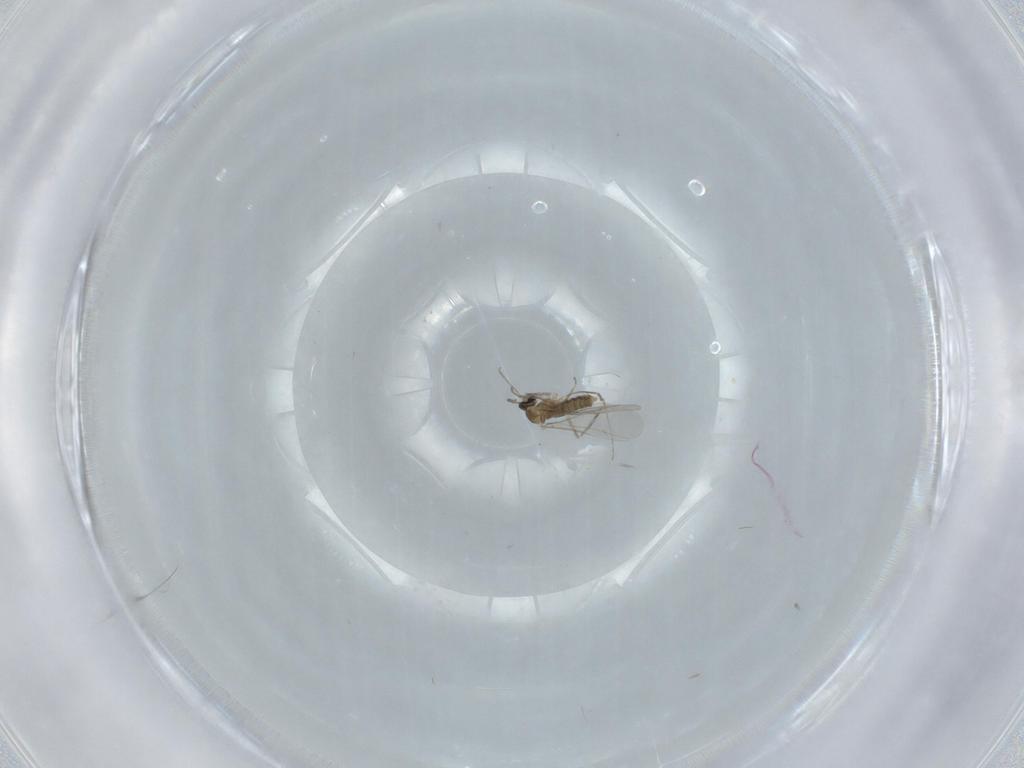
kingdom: Animalia
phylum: Arthropoda
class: Insecta
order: Diptera
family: Cecidomyiidae
